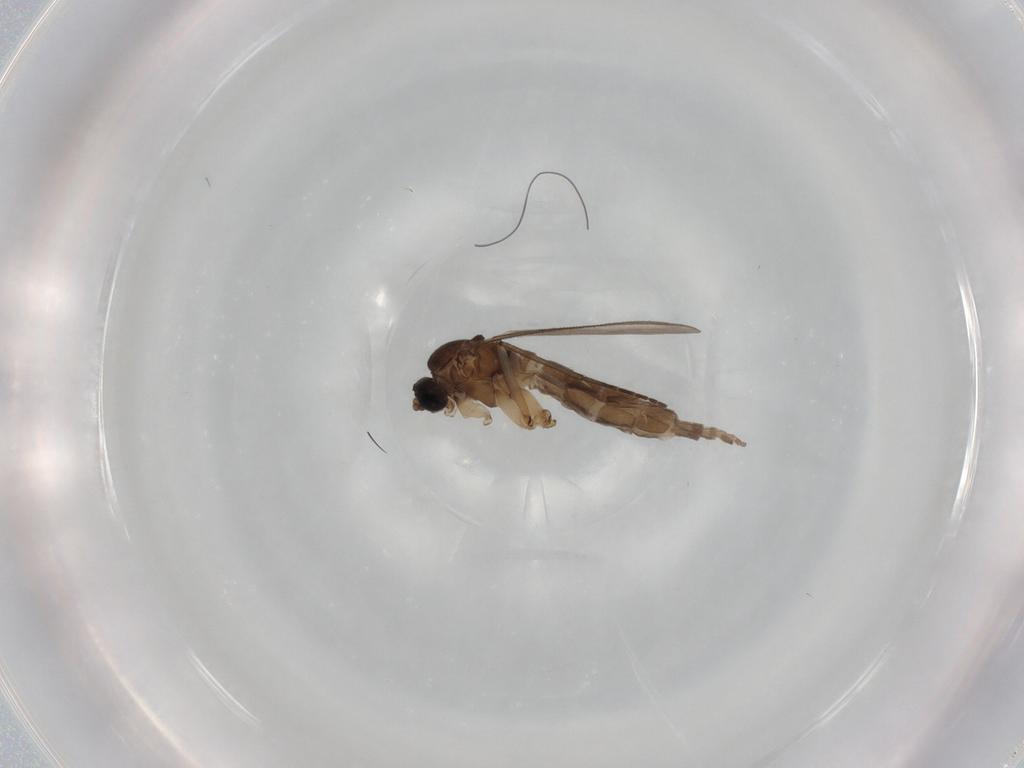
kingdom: Animalia
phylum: Arthropoda
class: Insecta
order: Diptera
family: Sciaridae
